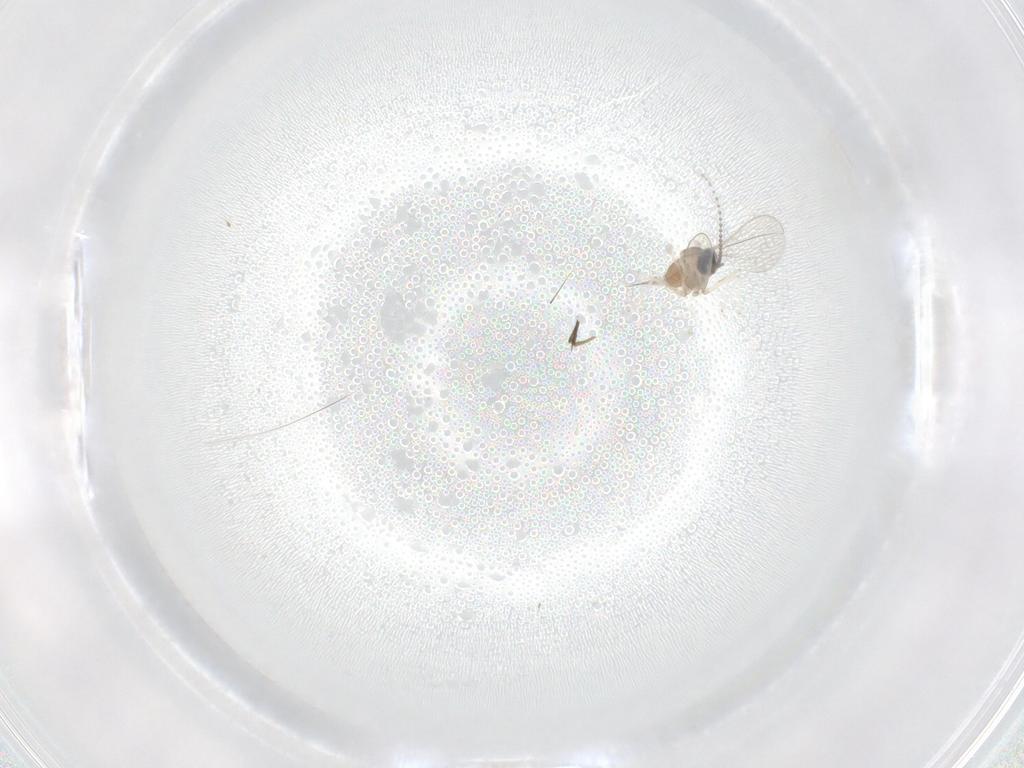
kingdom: Animalia
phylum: Arthropoda
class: Insecta
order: Diptera
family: Cecidomyiidae
